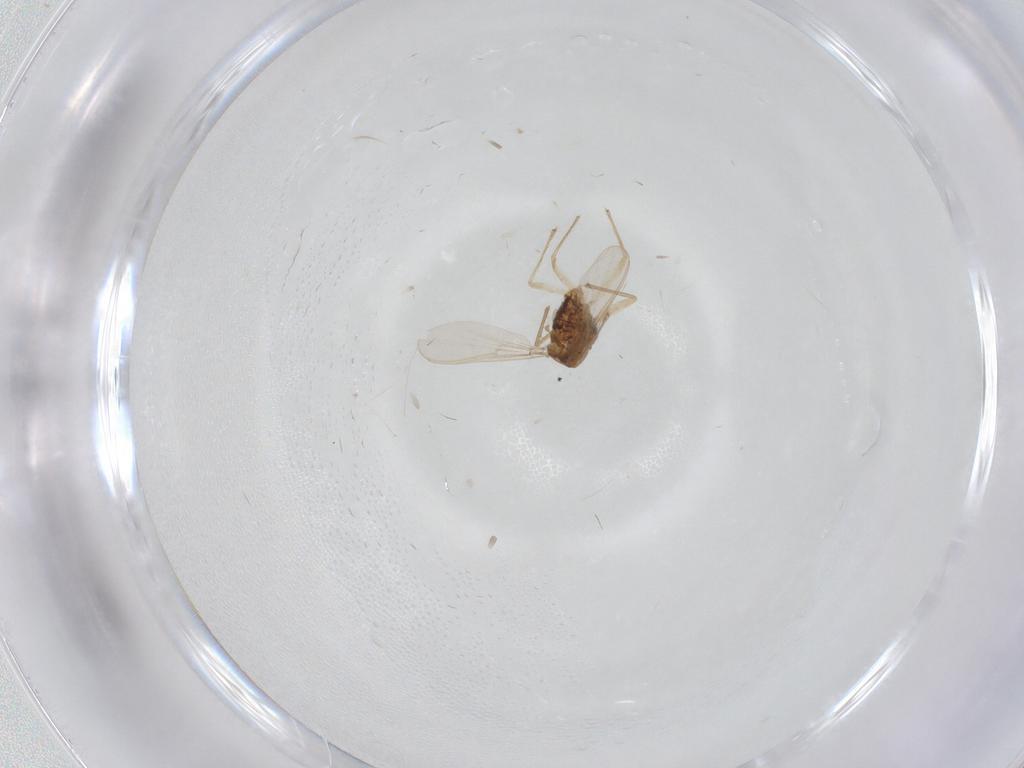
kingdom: Animalia
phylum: Arthropoda
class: Insecta
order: Diptera
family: Chironomidae
